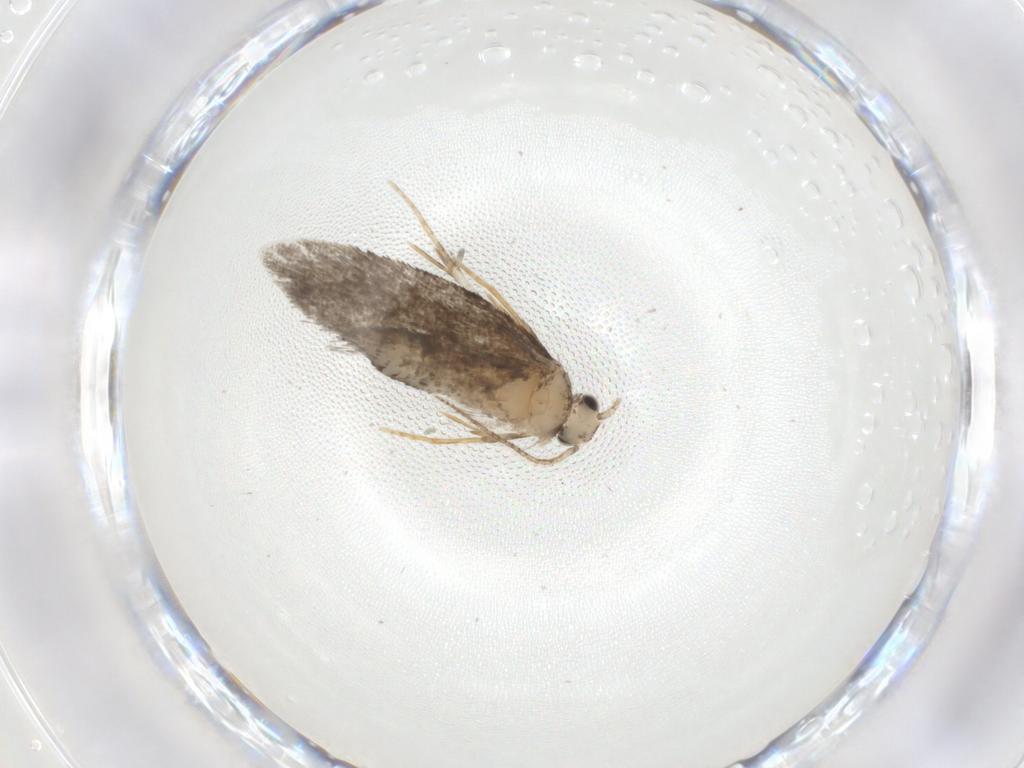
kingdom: Animalia
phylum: Arthropoda
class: Insecta
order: Lepidoptera
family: Psychidae
